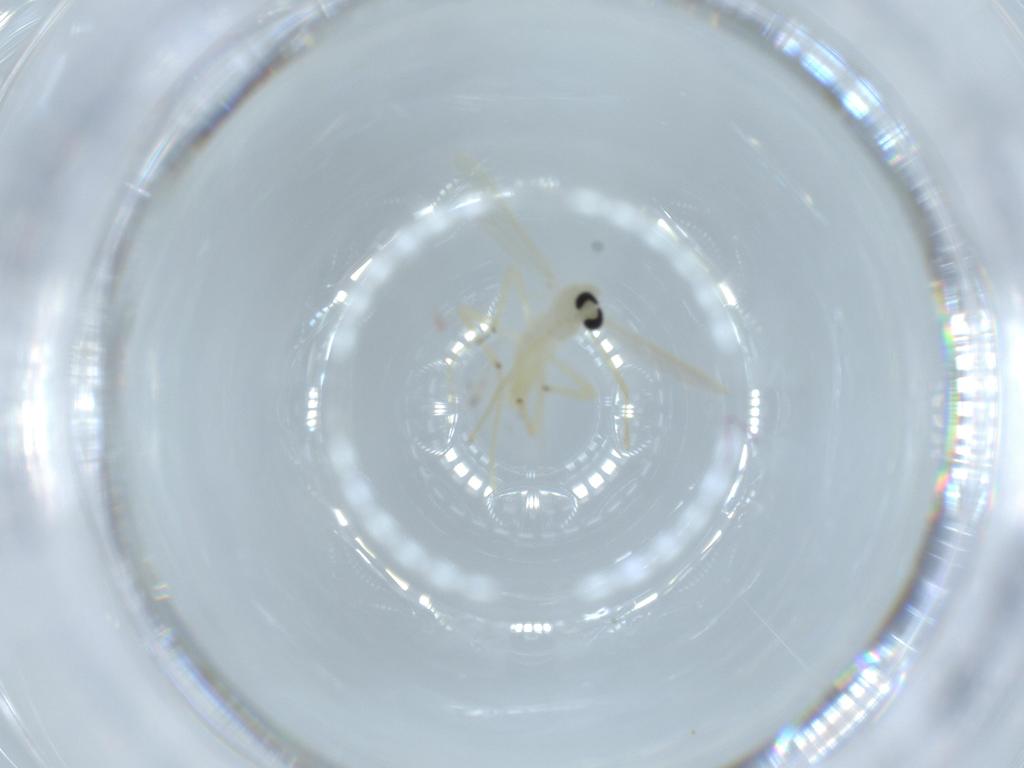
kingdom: Animalia
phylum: Arthropoda
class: Insecta
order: Diptera
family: Chironomidae
